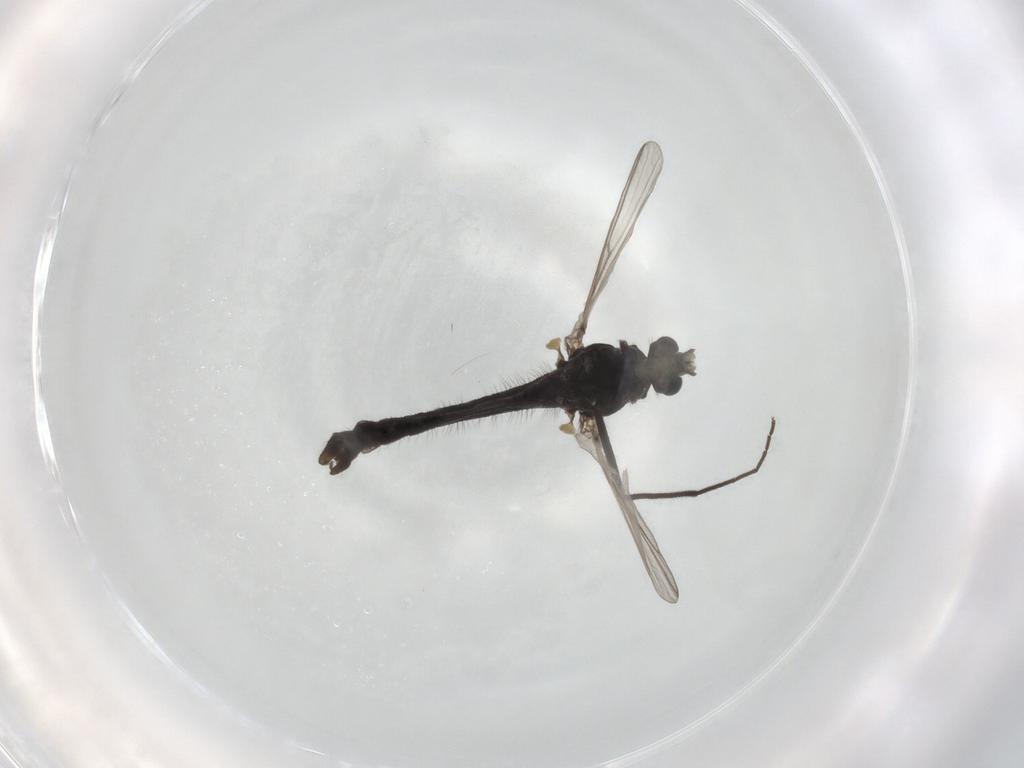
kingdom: Animalia
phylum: Arthropoda
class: Insecta
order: Diptera
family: Chironomidae
